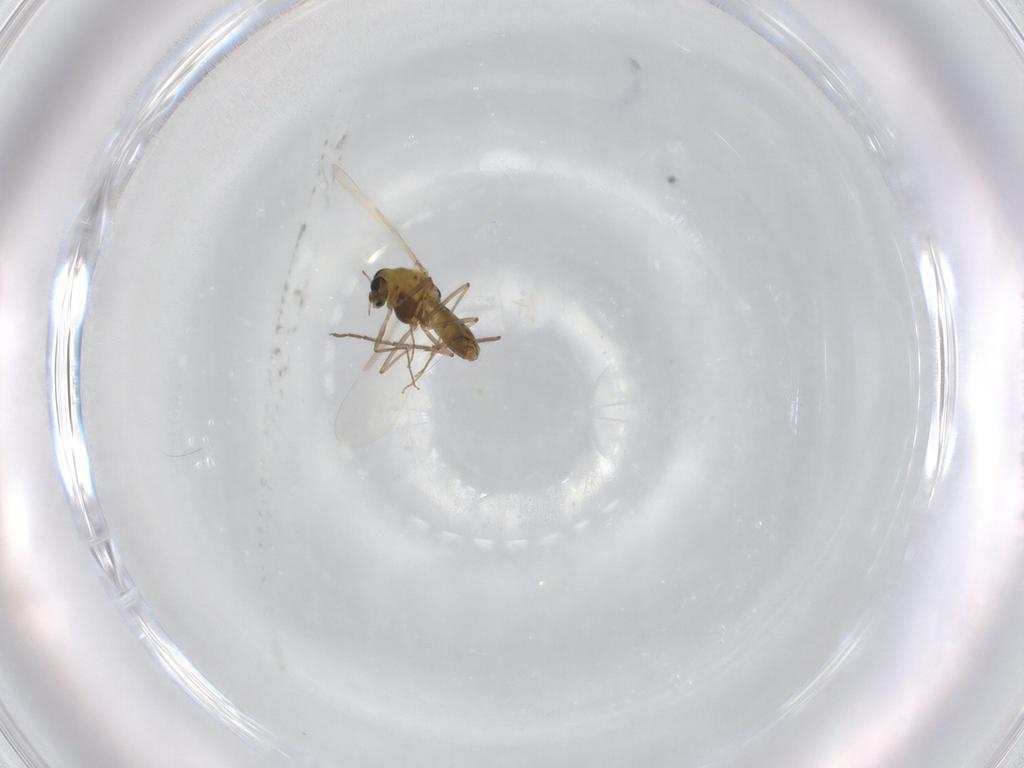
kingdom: Animalia
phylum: Arthropoda
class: Insecta
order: Diptera
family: Chironomidae
